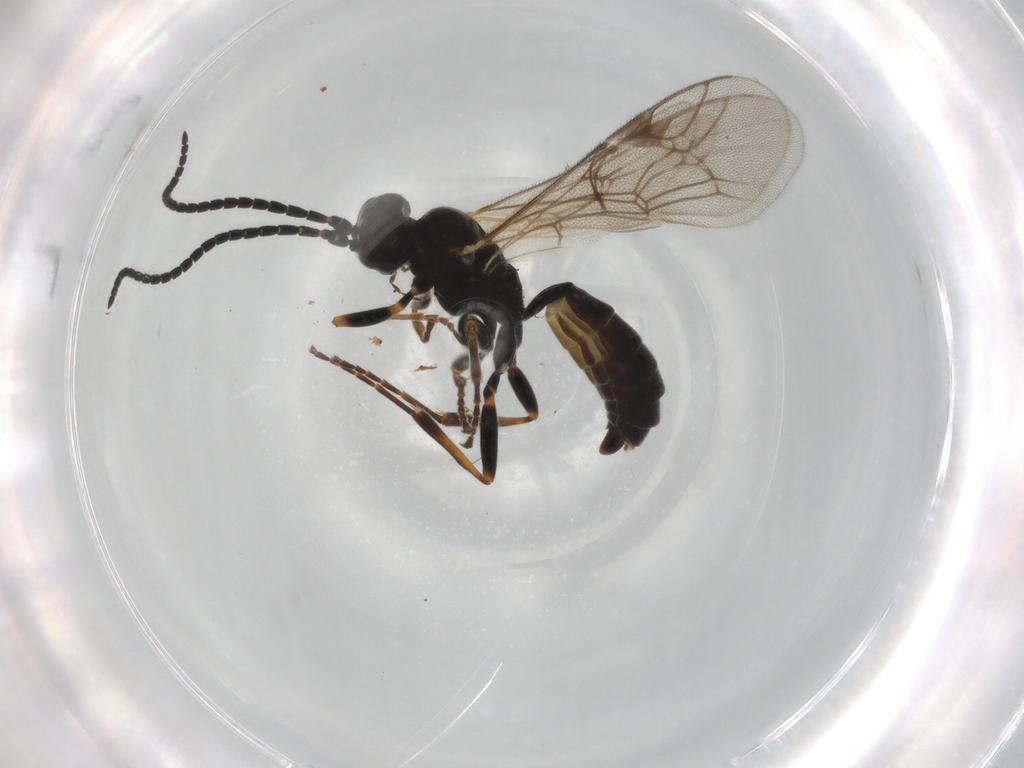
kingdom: Animalia
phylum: Arthropoda
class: Insecta
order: Hymenoptera
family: Ichneumonidae
